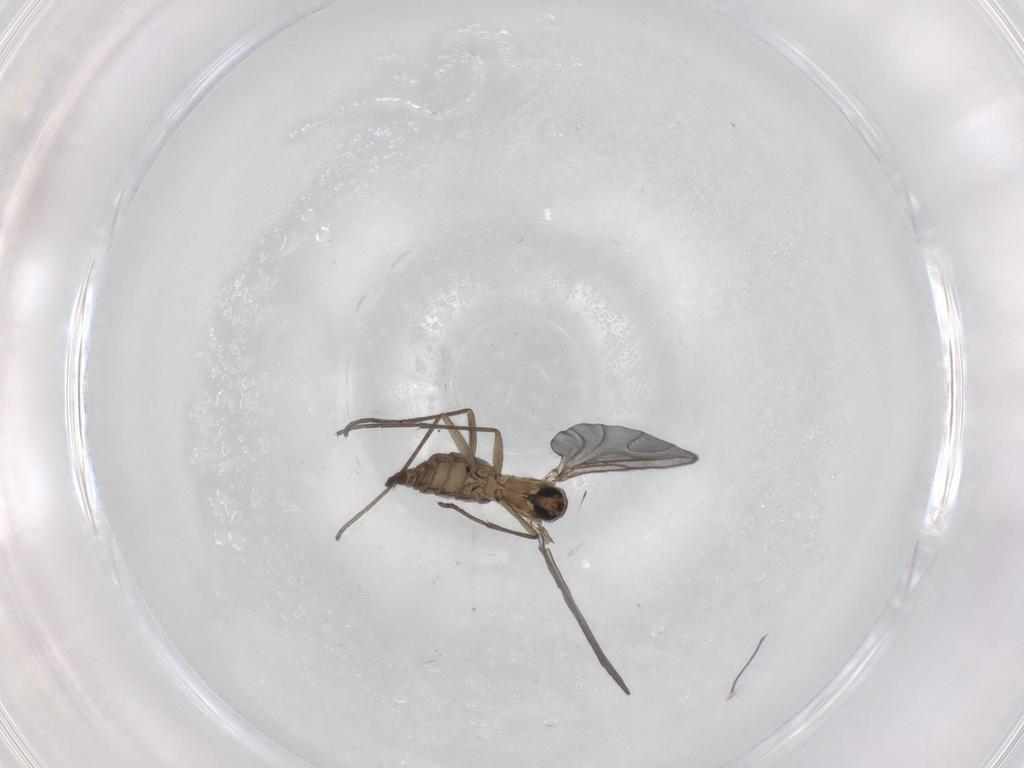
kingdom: Animalia
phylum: Arthropoda
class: Insecta
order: Diptera
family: Sciaridae
